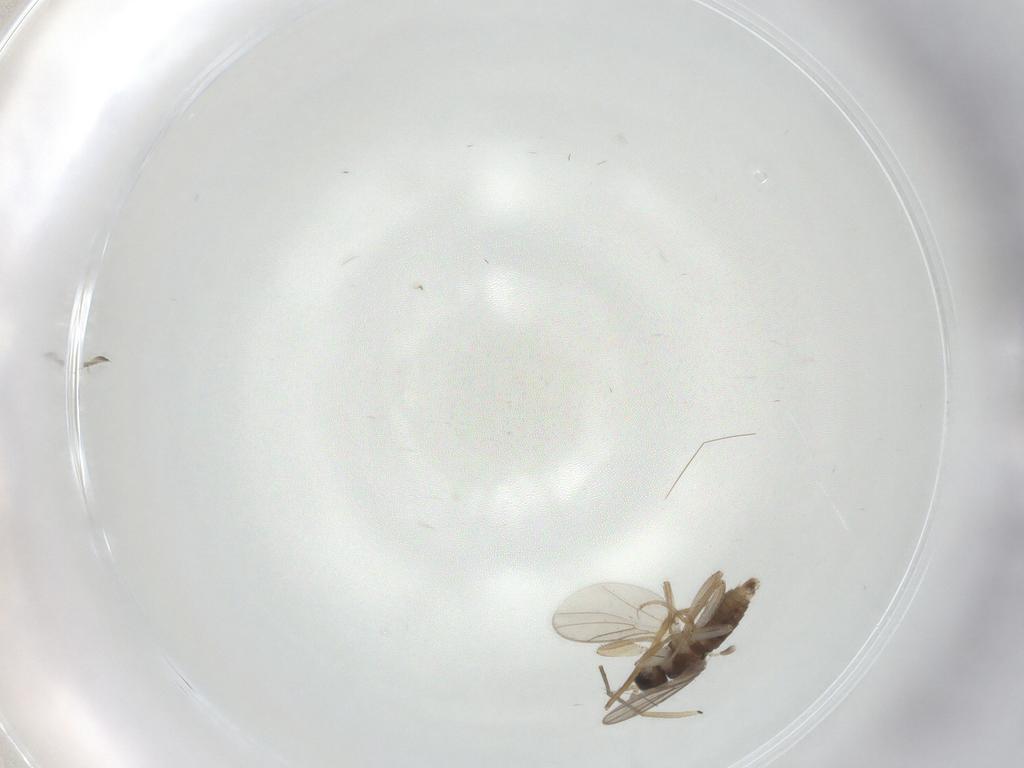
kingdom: Animalia
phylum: Arthropoda
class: Insecta
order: Diptera
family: Hybotidae
